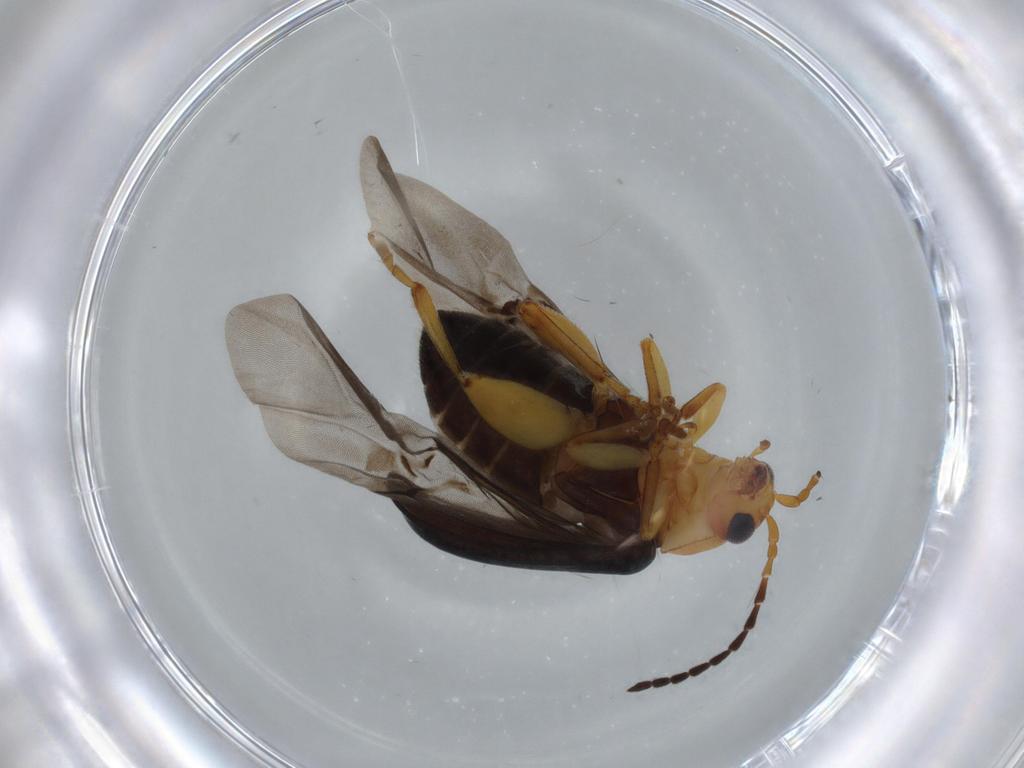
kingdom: Animalia
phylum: Arthropoda
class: Insecta
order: Coleoptera
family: Chrysomelidae
